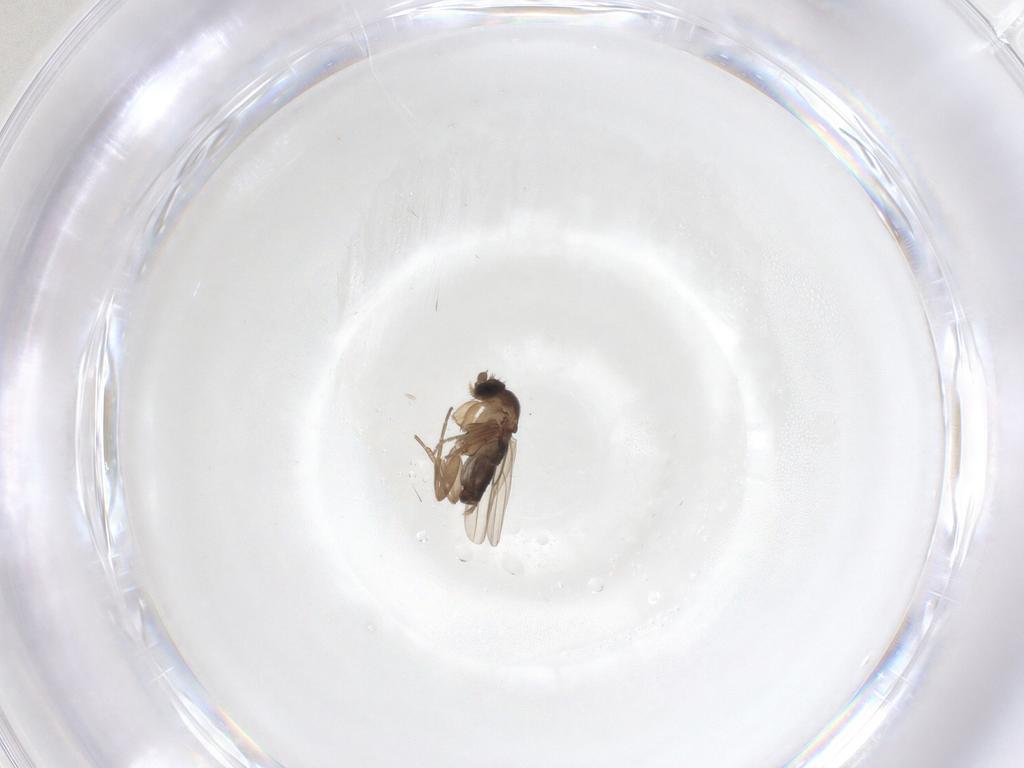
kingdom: Animalia
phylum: Arthropoda
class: Insecta
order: Diptera
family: Phoridae
